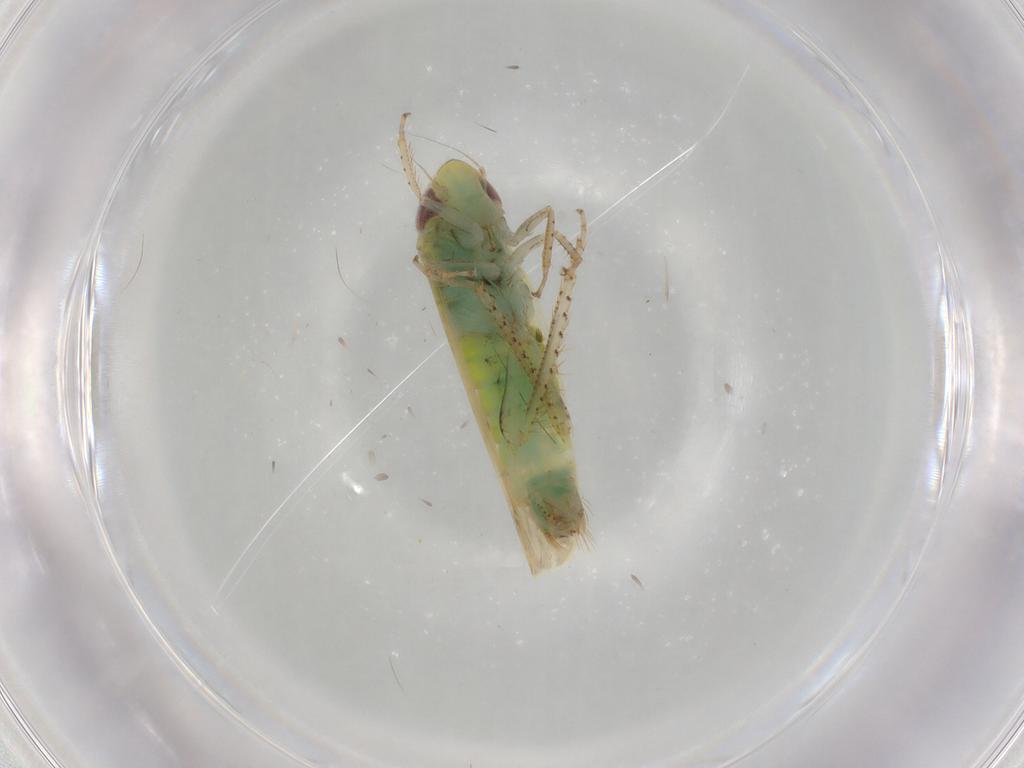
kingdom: Animalia
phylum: Arthropoda
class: Insecta
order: Hemiptera
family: Cicadellidae
